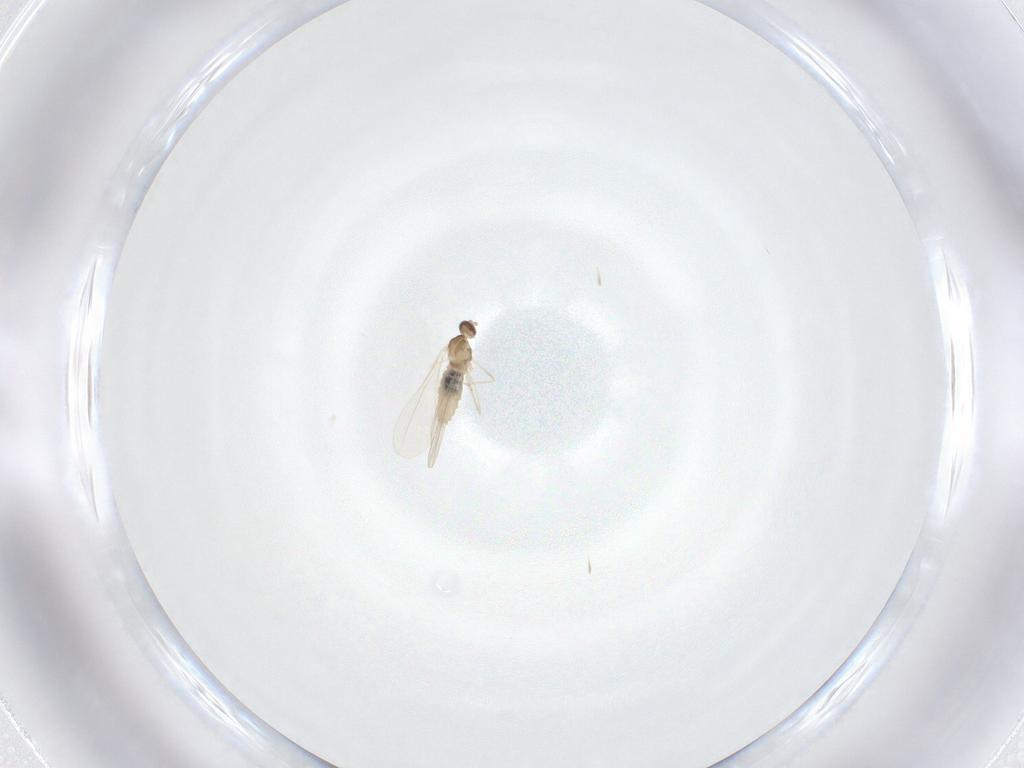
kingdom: Animalia
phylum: Arthropoda
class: Insecta
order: Diptera
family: Cecidomyiidae
